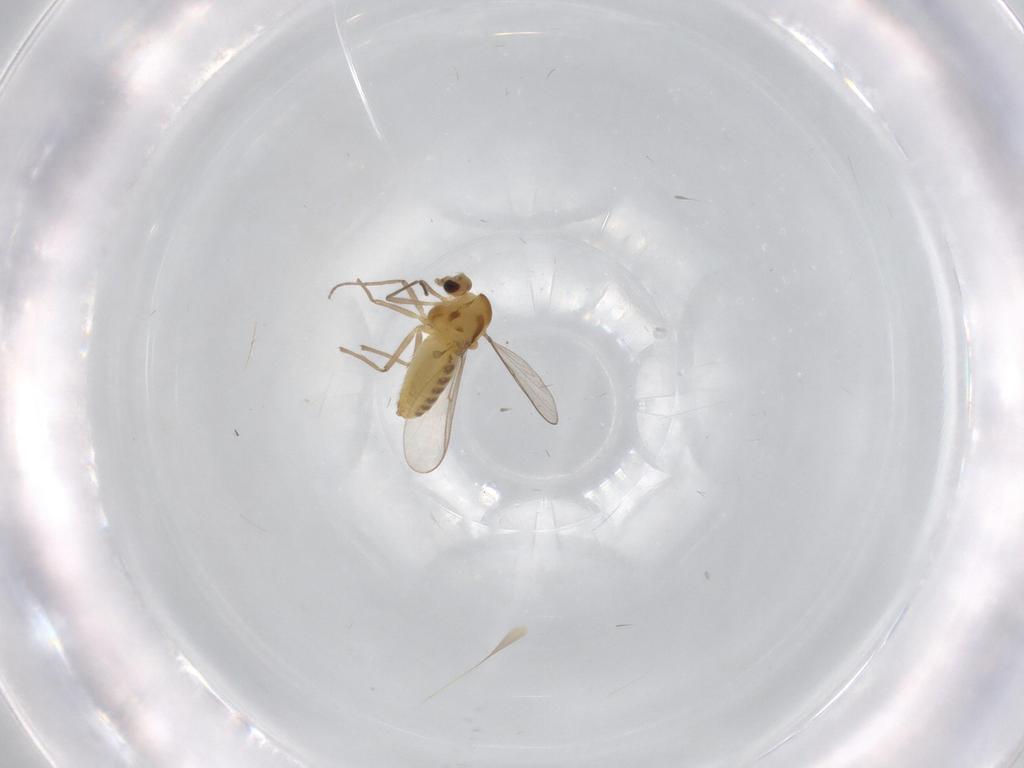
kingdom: Animalia
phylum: Arthropoda
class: Insecta
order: Diptera
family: Chironomidae
